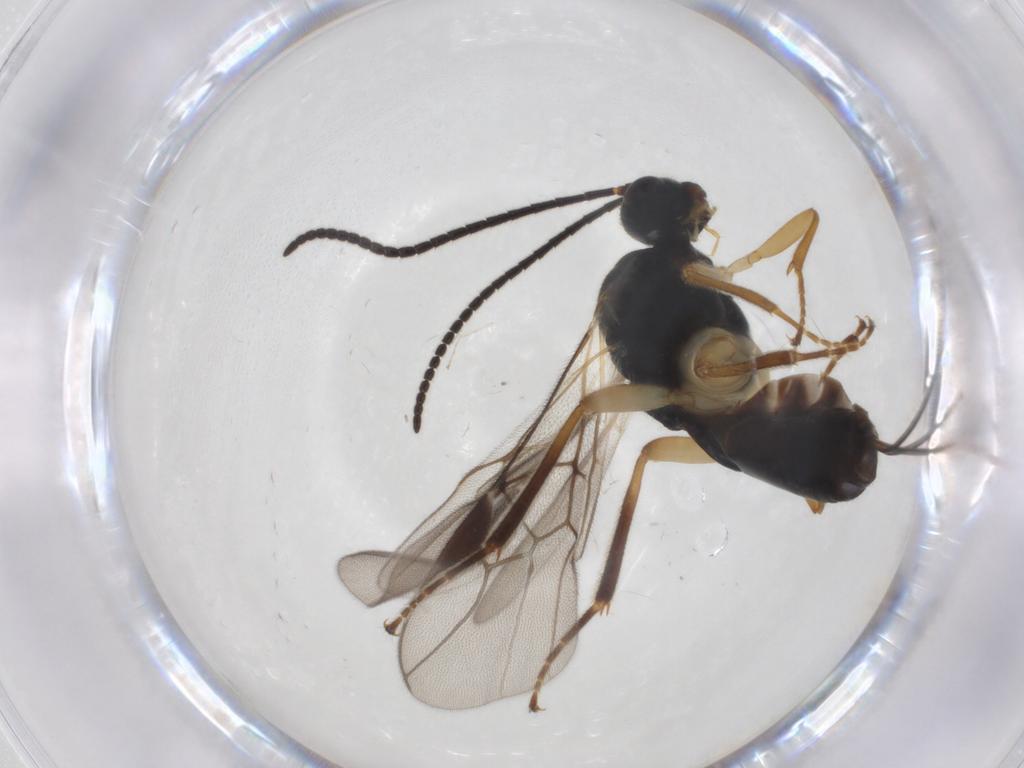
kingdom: Animalia
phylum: Arthropoda
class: Insecta
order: Hymenoptera
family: Braconidae
